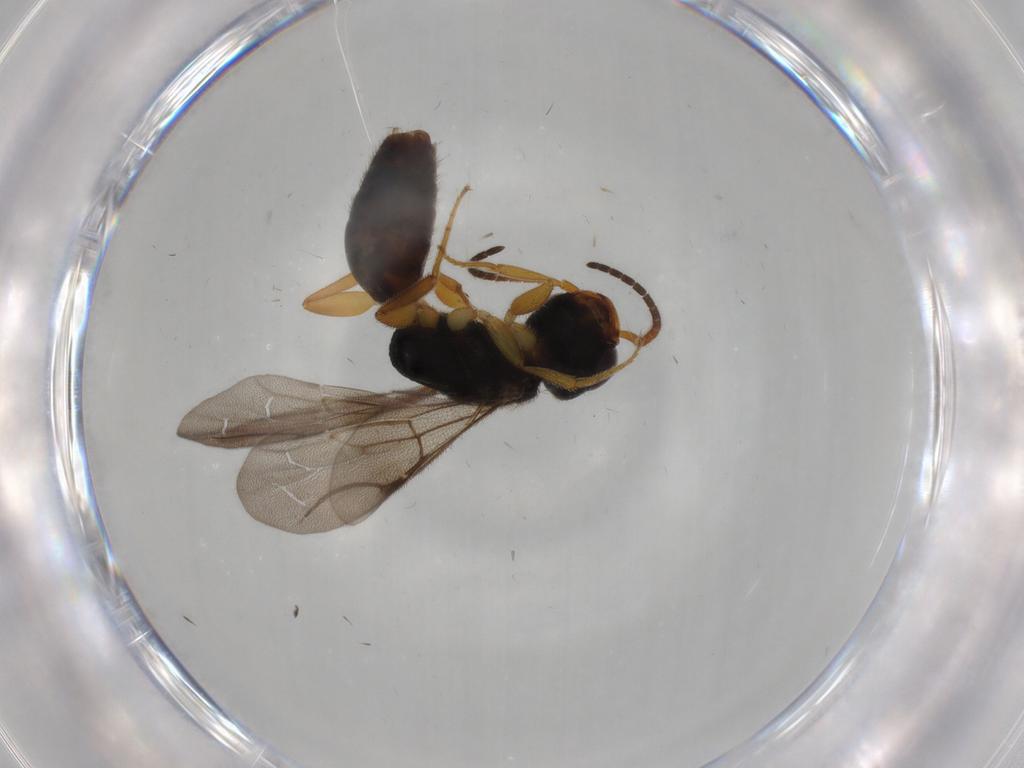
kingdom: Animalia
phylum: Arthropoda
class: Insecta
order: Hymenoptera
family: Bethylidae
